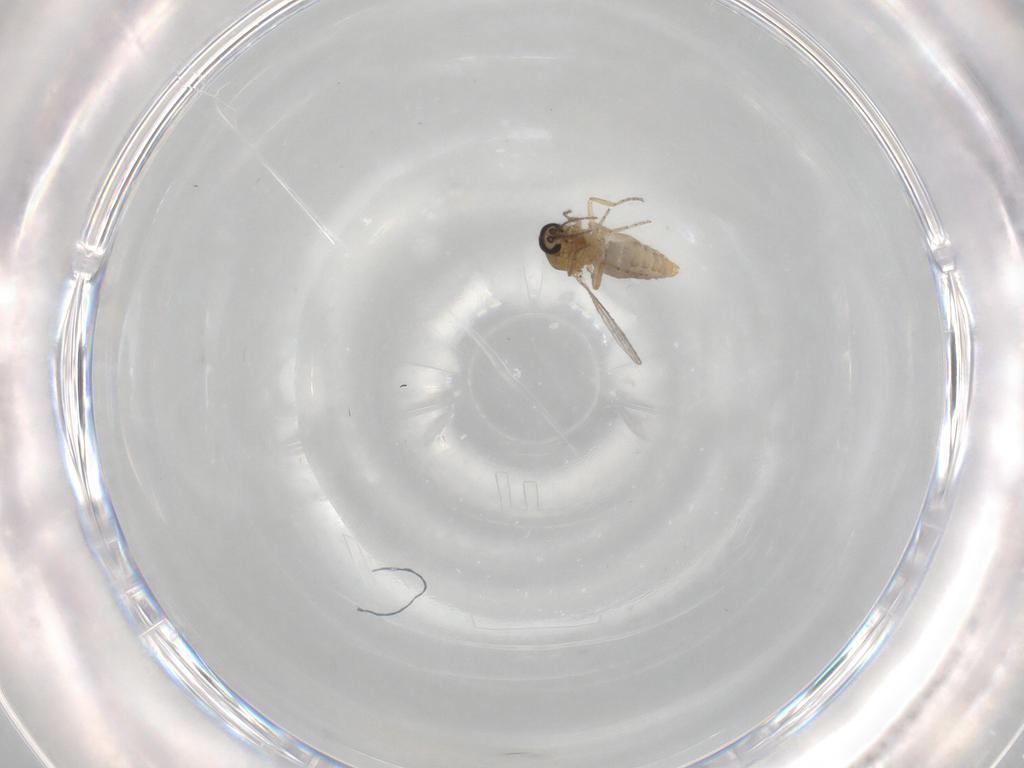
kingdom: Animalia
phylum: Arthropoda
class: Insecta
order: Diptera
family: Ceratopogonidae
